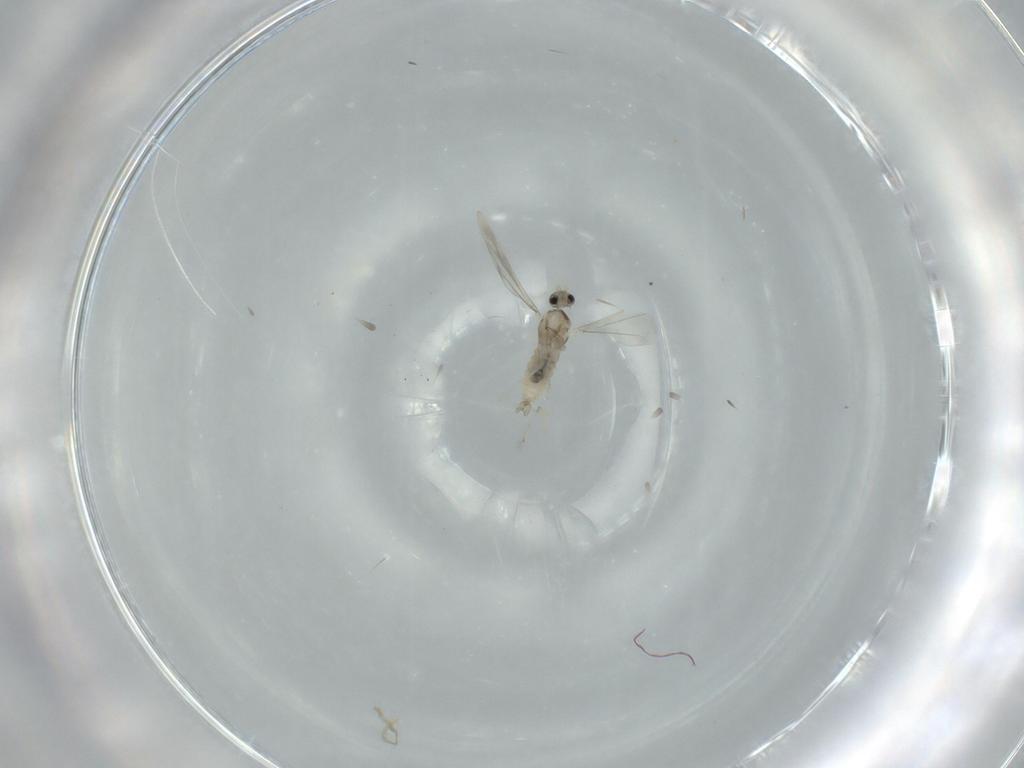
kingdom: Animalia
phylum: Arthropoda
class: Insecta
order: Diptera
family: Cecidomyiidae
